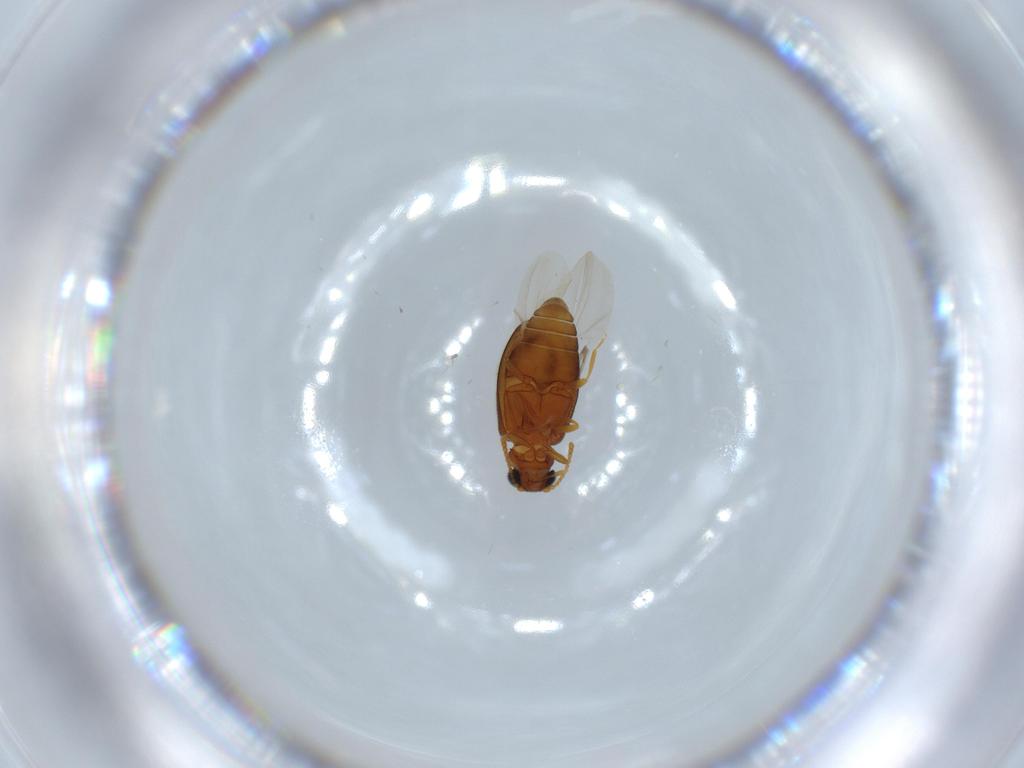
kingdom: Animalia
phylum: Arthropoda
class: Insecta
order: Coleoptera
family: Aderidae
